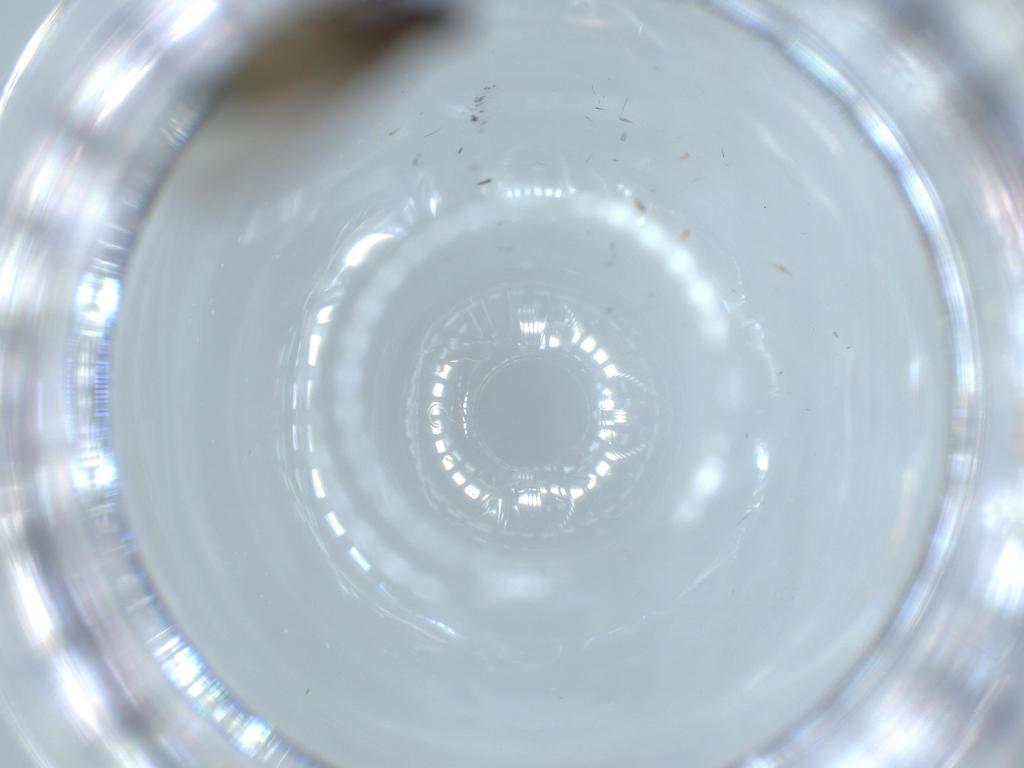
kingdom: Animalia
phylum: Arthropoda
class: Insecta
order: Diptera
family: Sciaridae
